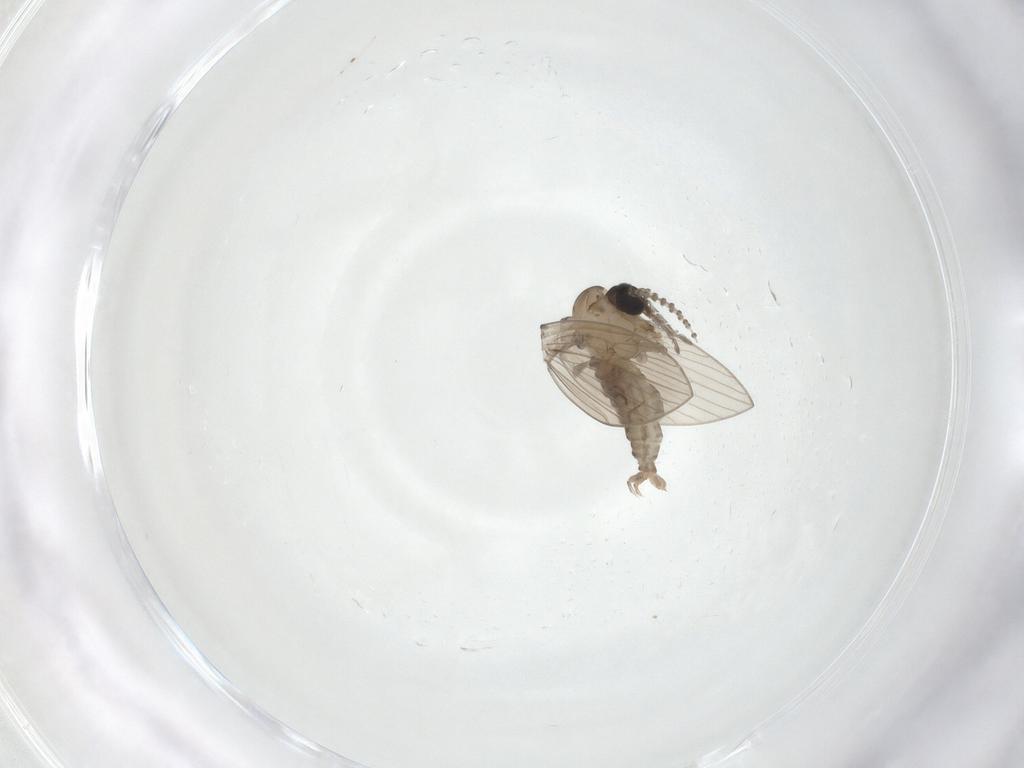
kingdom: Animalia
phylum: Arthropoda
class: Insecta
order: Diptera
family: Psychodidae
